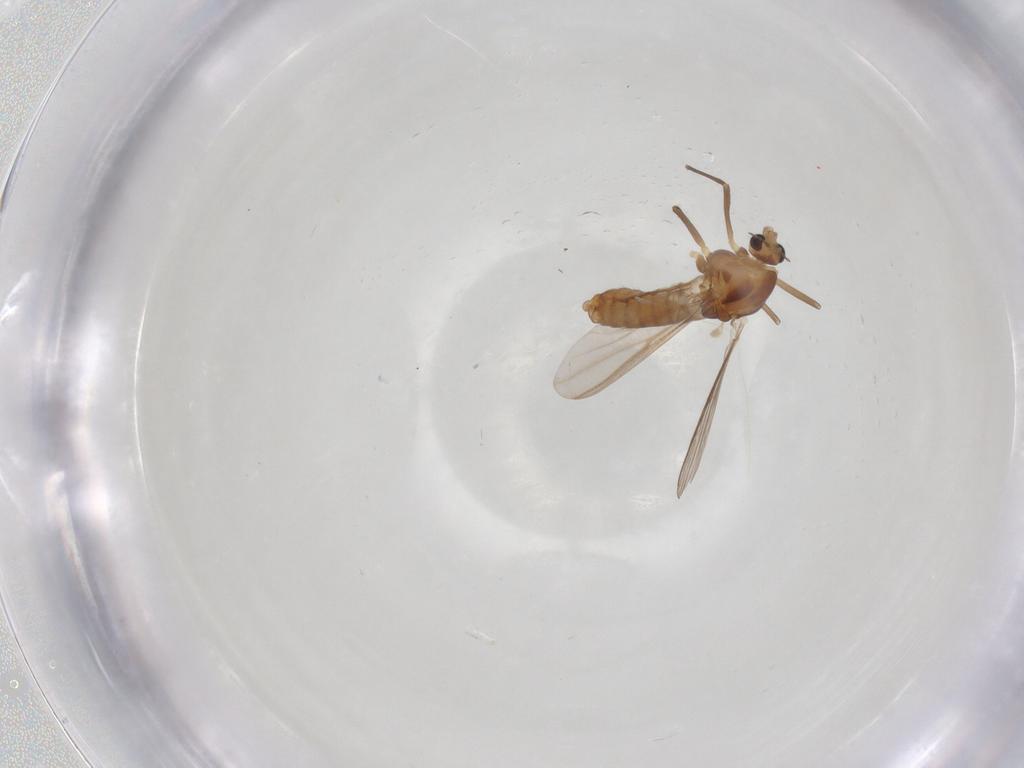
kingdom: Animalia
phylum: Arthropoda
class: Insecta
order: Diptera
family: Chironomidae
